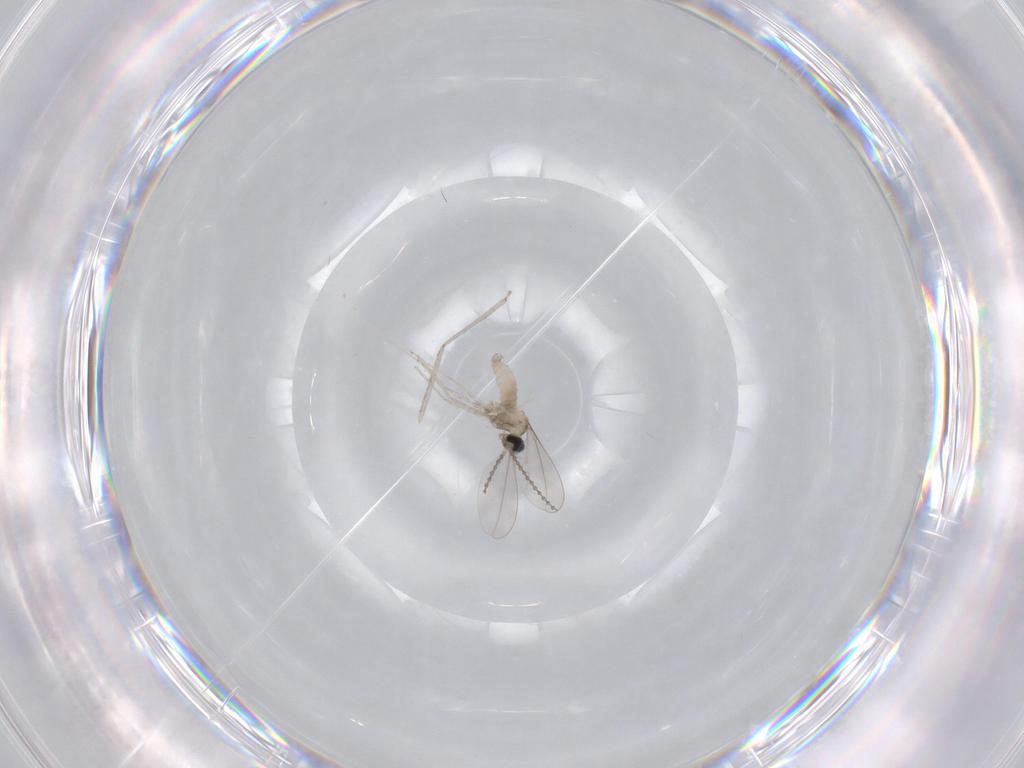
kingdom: Animalia
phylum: Arthropoda
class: Insecta
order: Diptera
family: Cecidomyiidae
